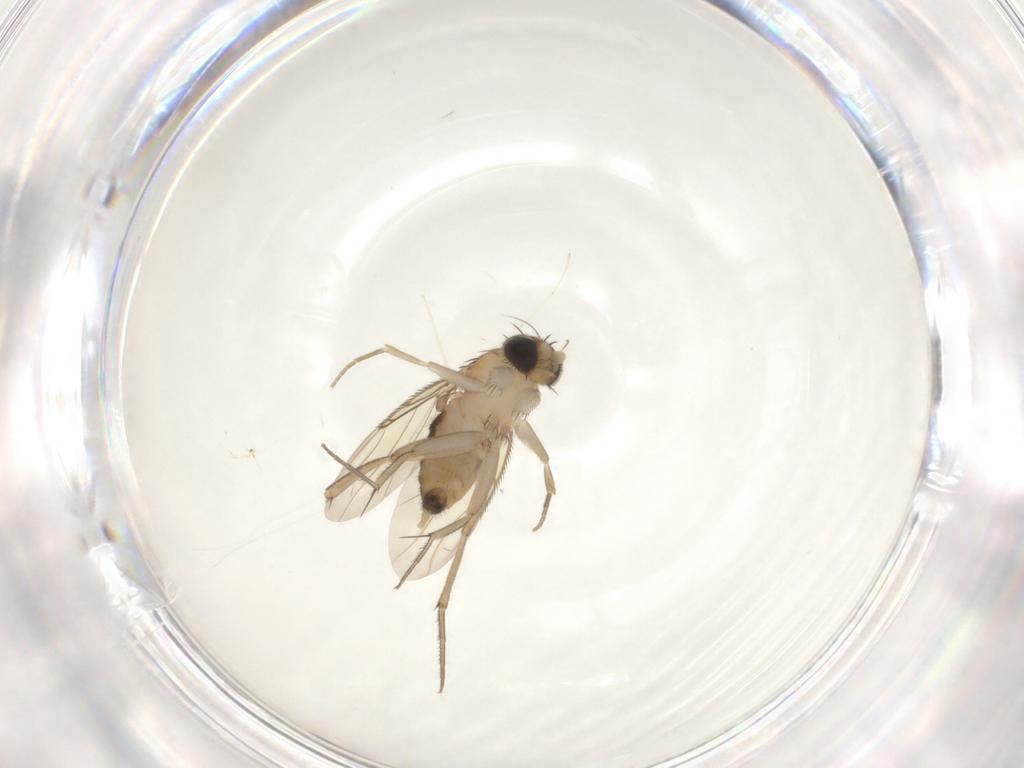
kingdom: Animalia
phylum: Arthropoda
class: Insecta
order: Diptera
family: Phoridae
